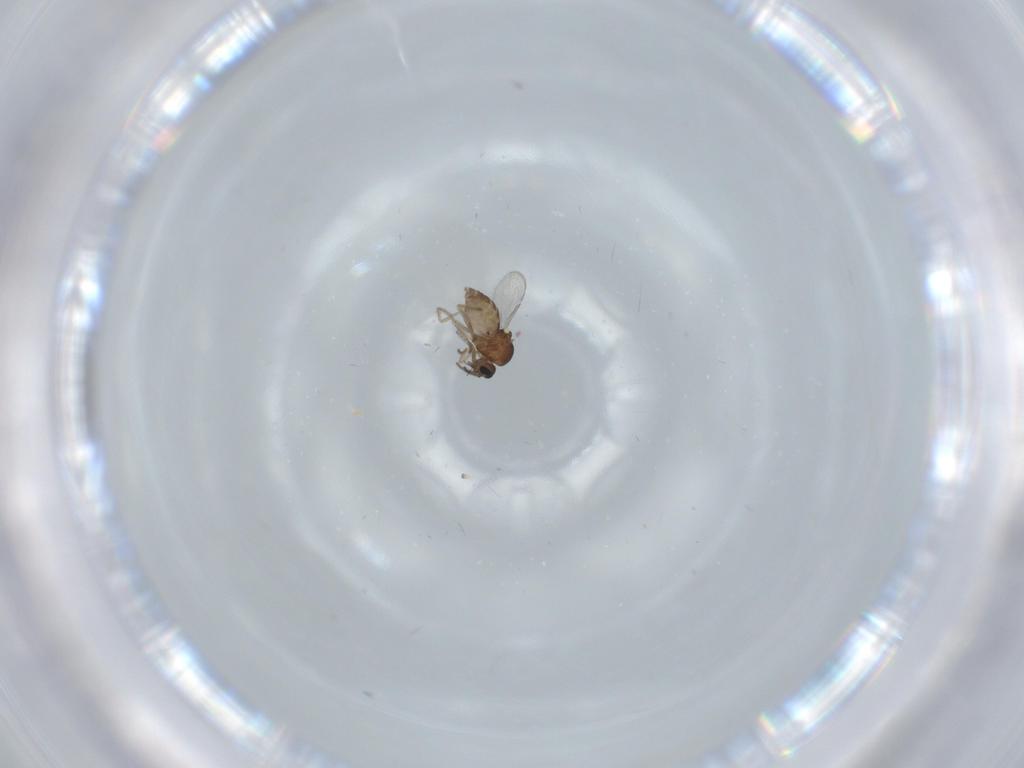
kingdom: Animalia
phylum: Arthropoda
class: Insecta
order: Diptera
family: Ceratopogonidae
